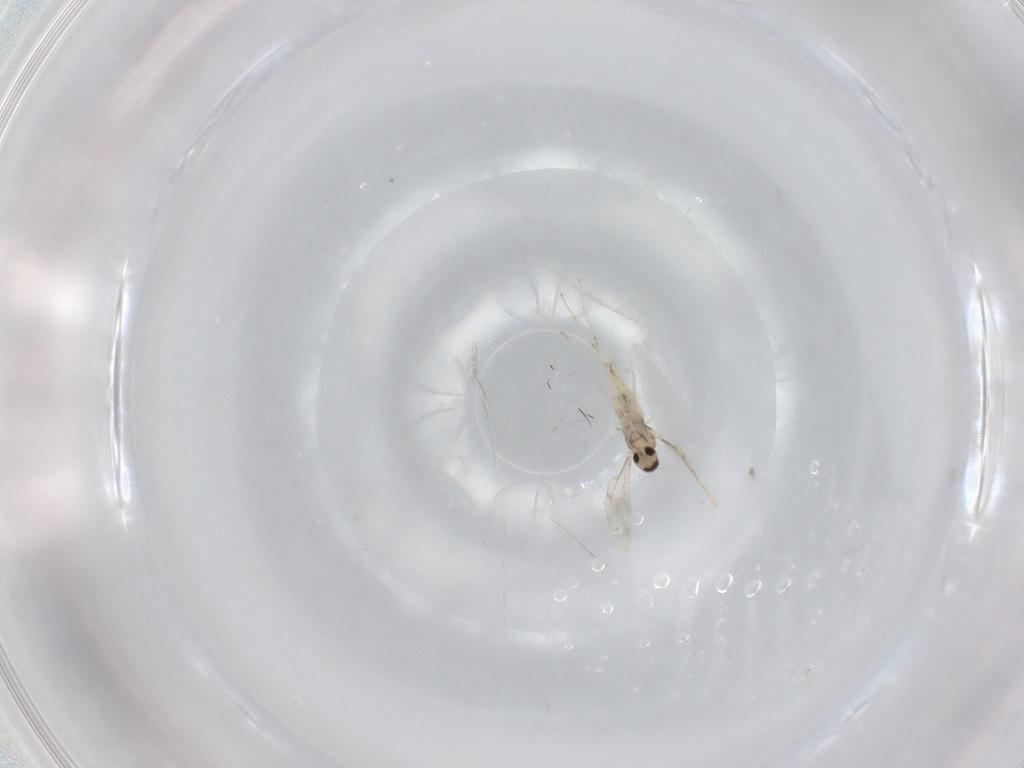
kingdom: Animalia
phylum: Arthropoda
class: Insecta
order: Diptera
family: Cecidomyiidae
